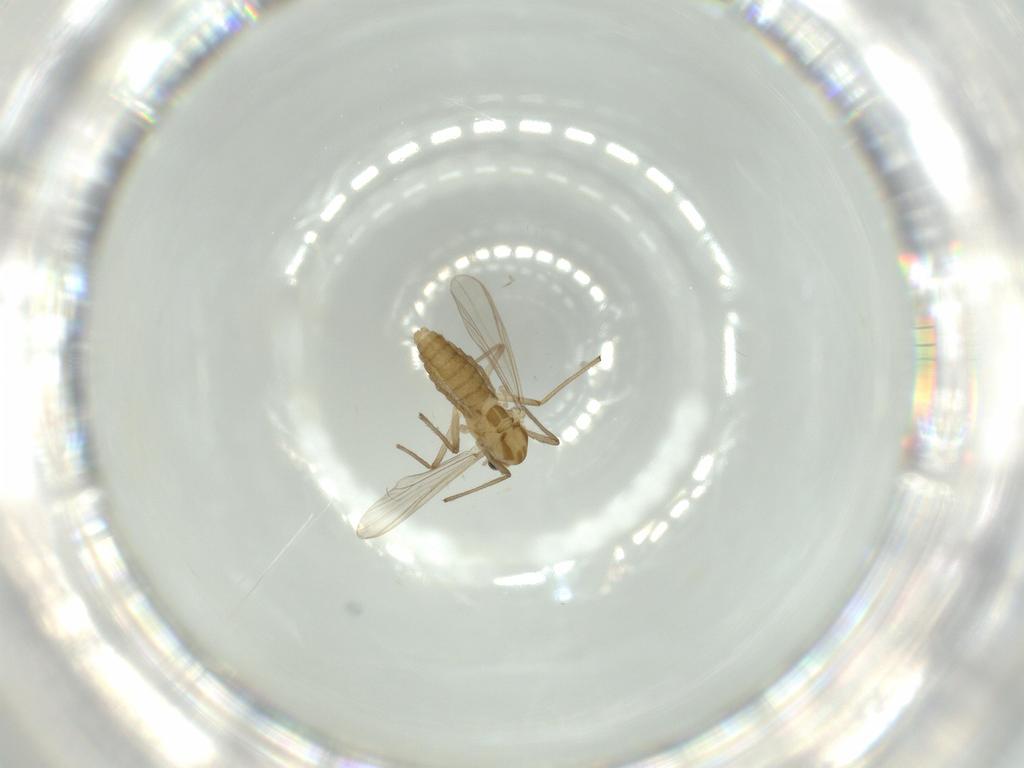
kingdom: Animalia
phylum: Arthropoda
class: Insecta
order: Diptera
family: Chironomidae
